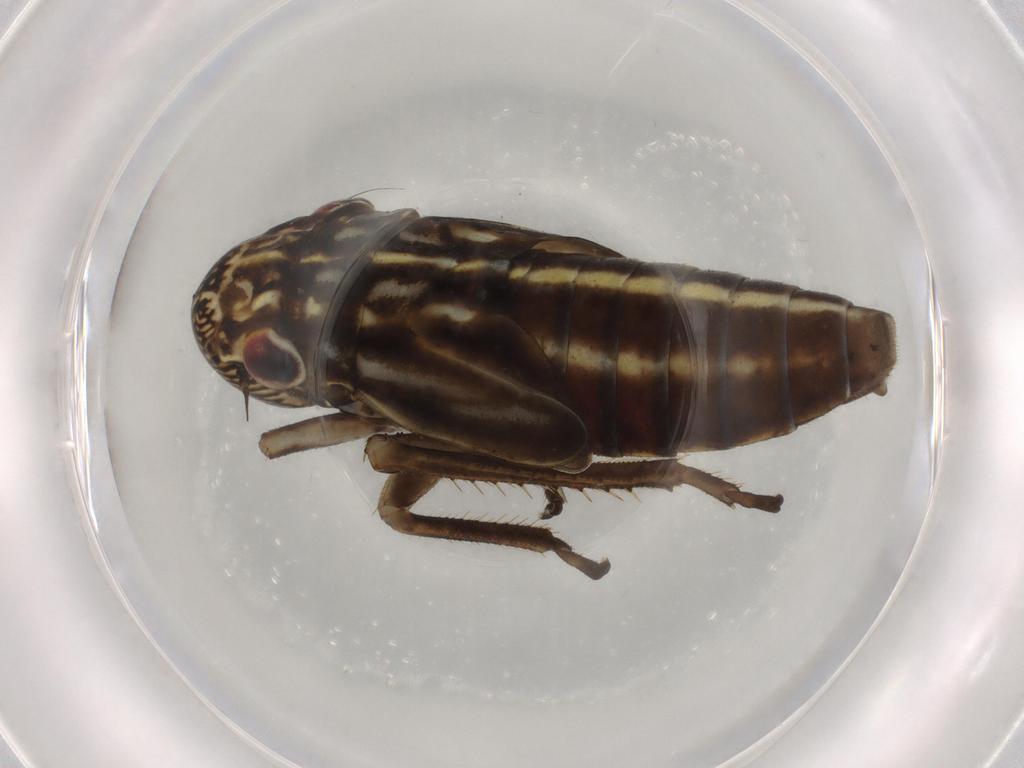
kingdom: Animalia
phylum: Arthropoda
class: Insecta
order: Hemiptera
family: Cicadellidae
